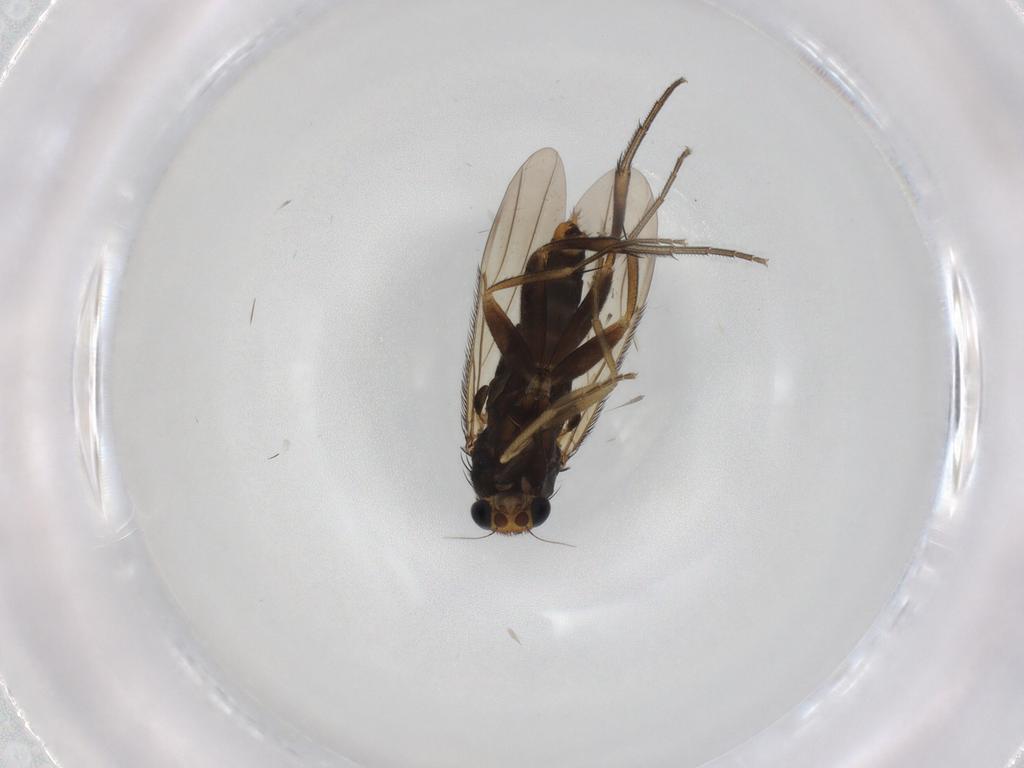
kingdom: Animalia
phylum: Arthropoda
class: Insecta
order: Diptera
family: Phoridae
